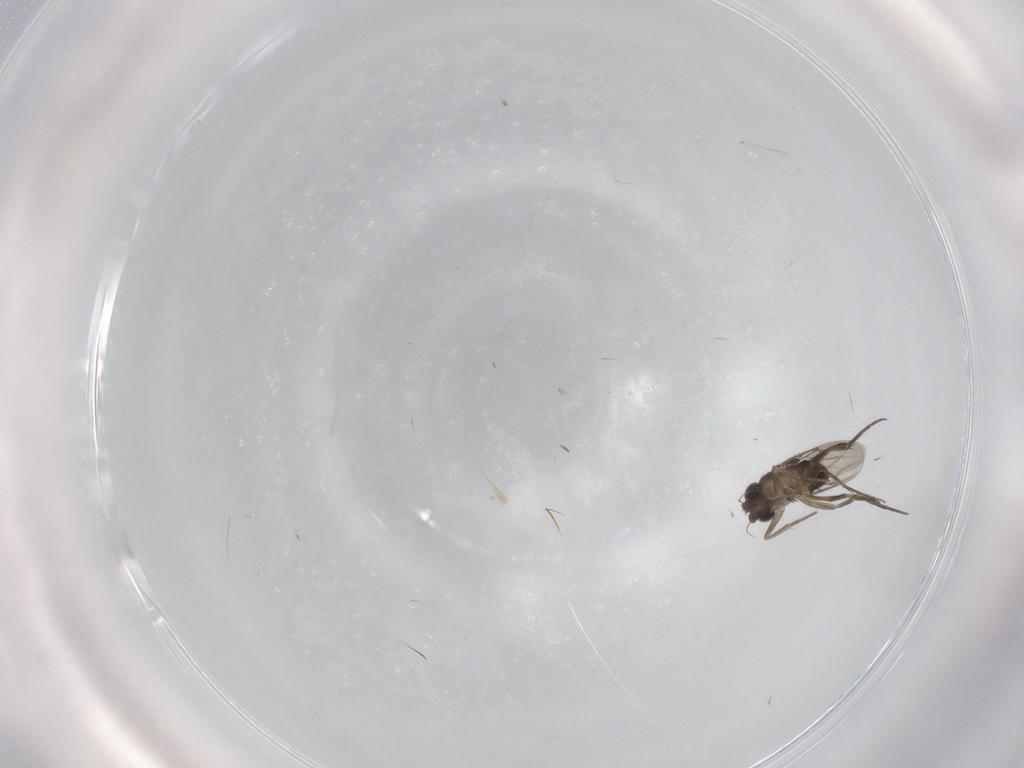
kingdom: Animalia
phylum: Arthropoda
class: Insecta
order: Diptera
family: Phoridae
